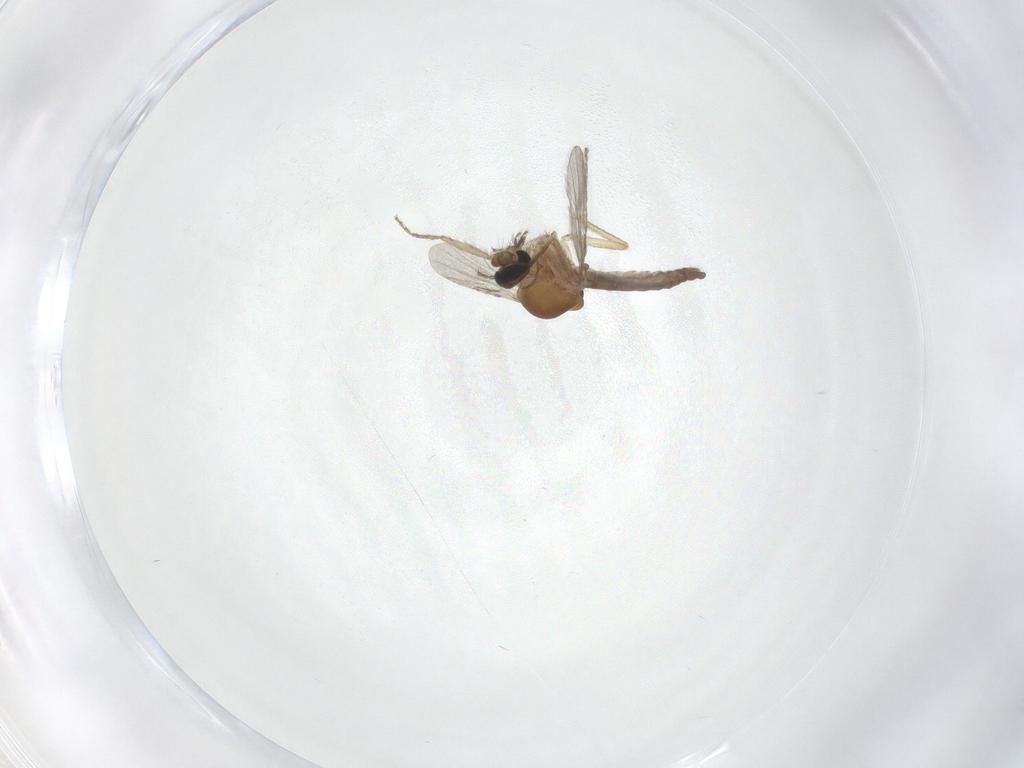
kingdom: Animalia
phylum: Arthropoda
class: Insecta
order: Diptera
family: Ceratopogonidae
